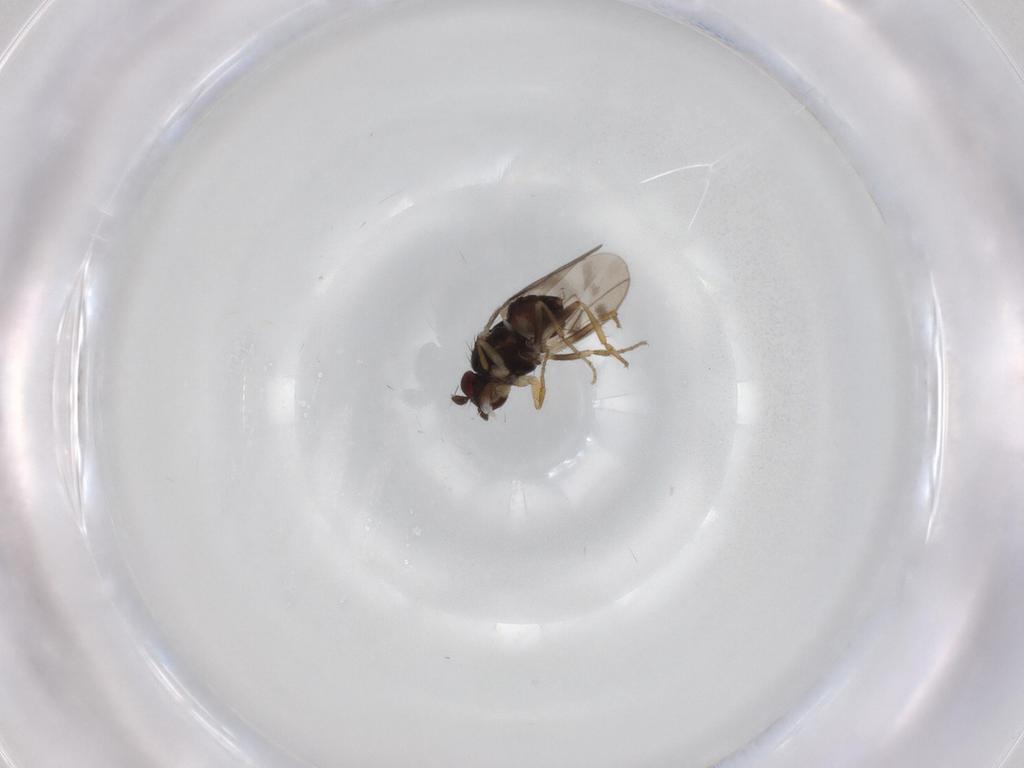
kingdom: Animalia
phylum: Arthropoda
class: Insecta
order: Diptera
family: Sphaeroceridae
